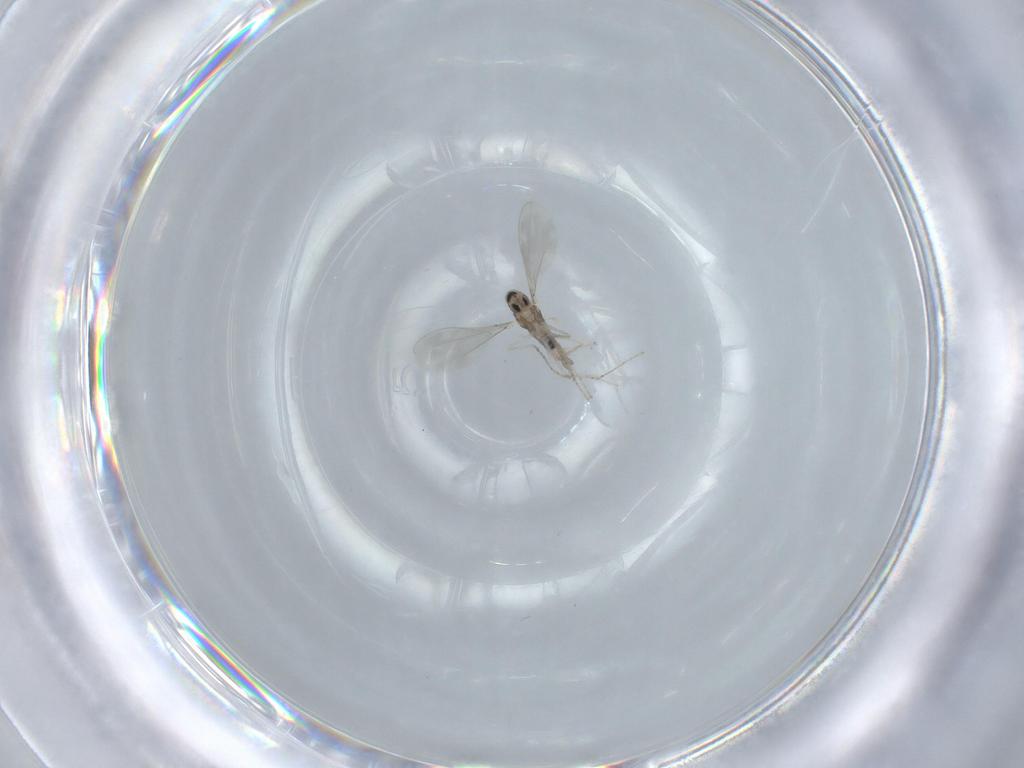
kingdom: Animalia
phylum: Arthropoda
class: Insecta
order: Diptera
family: Cecidomyiidae
